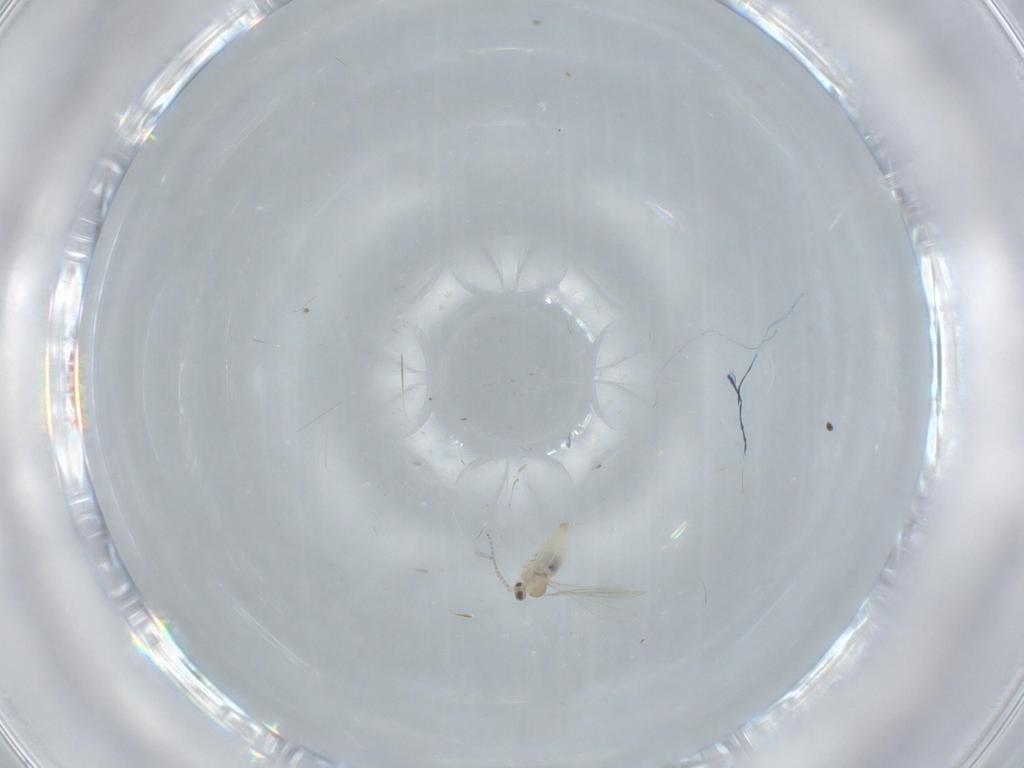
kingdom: Animalia
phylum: Arthropoda
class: Insecta
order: Diptera
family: Cecidomyiidae
